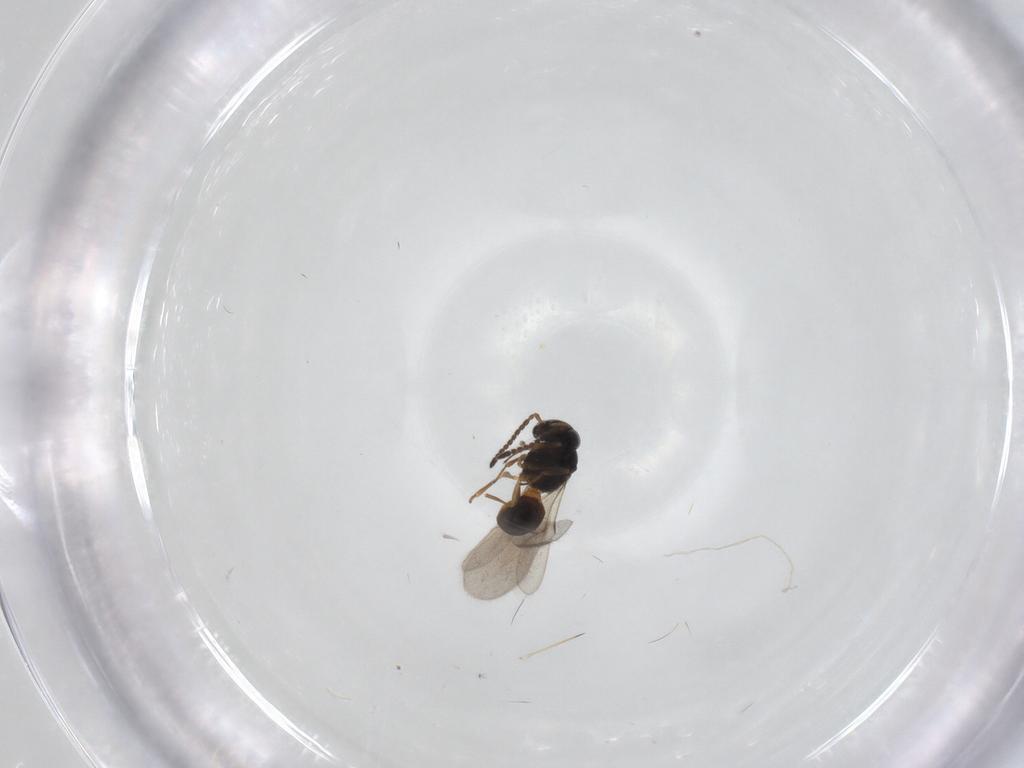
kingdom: Animalia
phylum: Arthropoda
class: Insecta
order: Hymenoptera
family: Scelionidae
